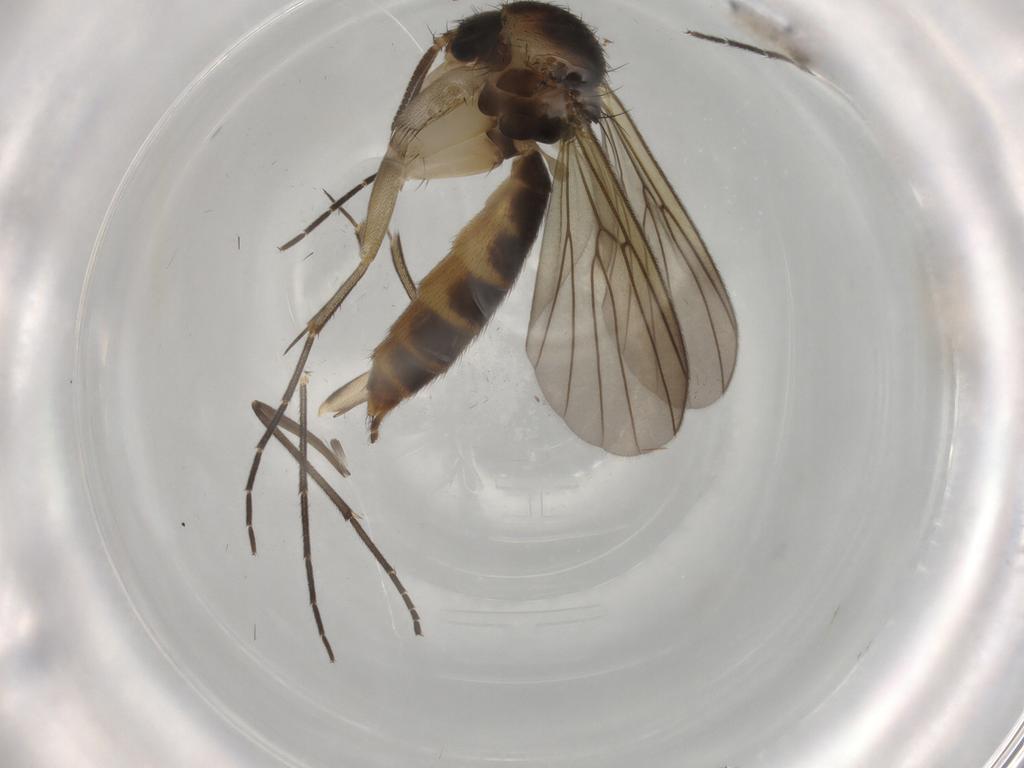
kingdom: Animalia
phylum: Arthropoda
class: Insecta
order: Diptera
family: Mycetophilidae
